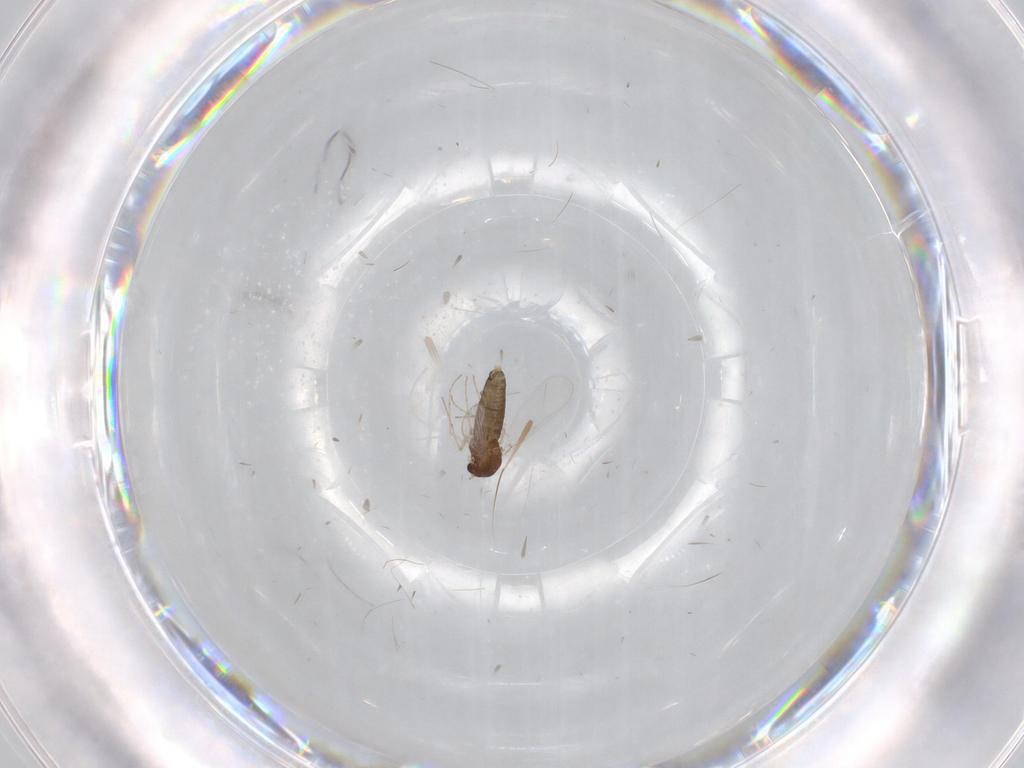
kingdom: Animalia
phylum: Arthropoda
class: Insecta
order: Diptera
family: Chironomidae
